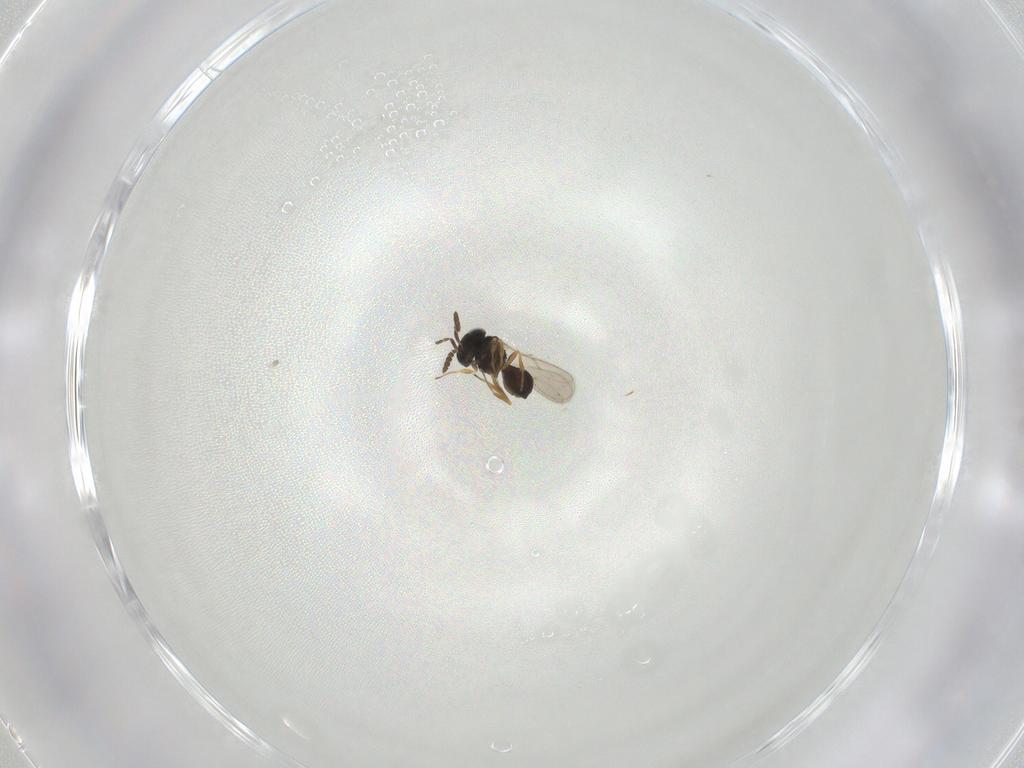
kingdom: Animalia
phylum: Arthropoda
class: Insecta
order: Hymenoptera
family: Scelionidae
